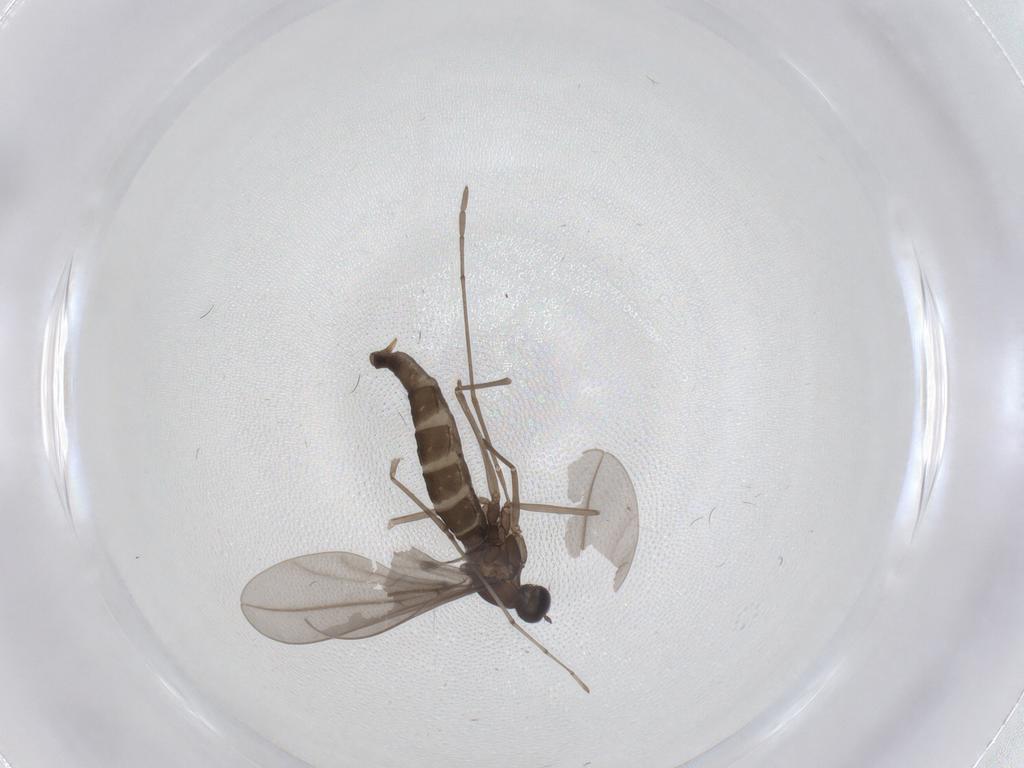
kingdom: Animalia
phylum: Arthropoda
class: Insecta
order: Diptera
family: Cecidomyiidae
